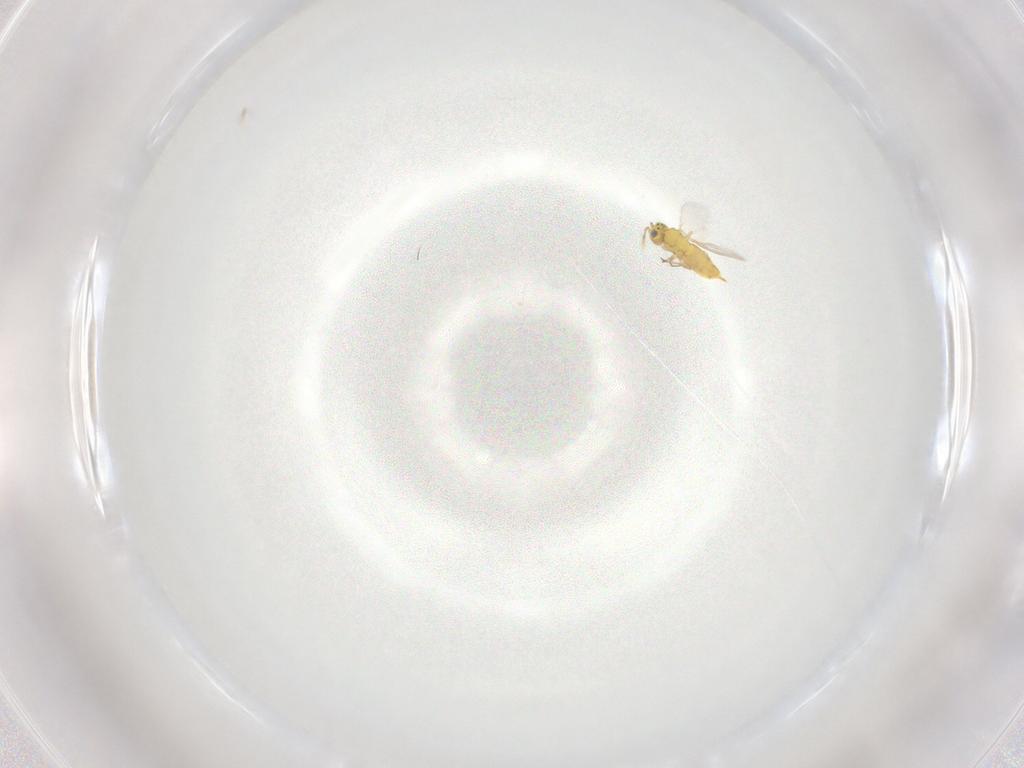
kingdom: Animalia
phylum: Arthropoda
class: Insecta
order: Hymenoptera
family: Aphelinidae
